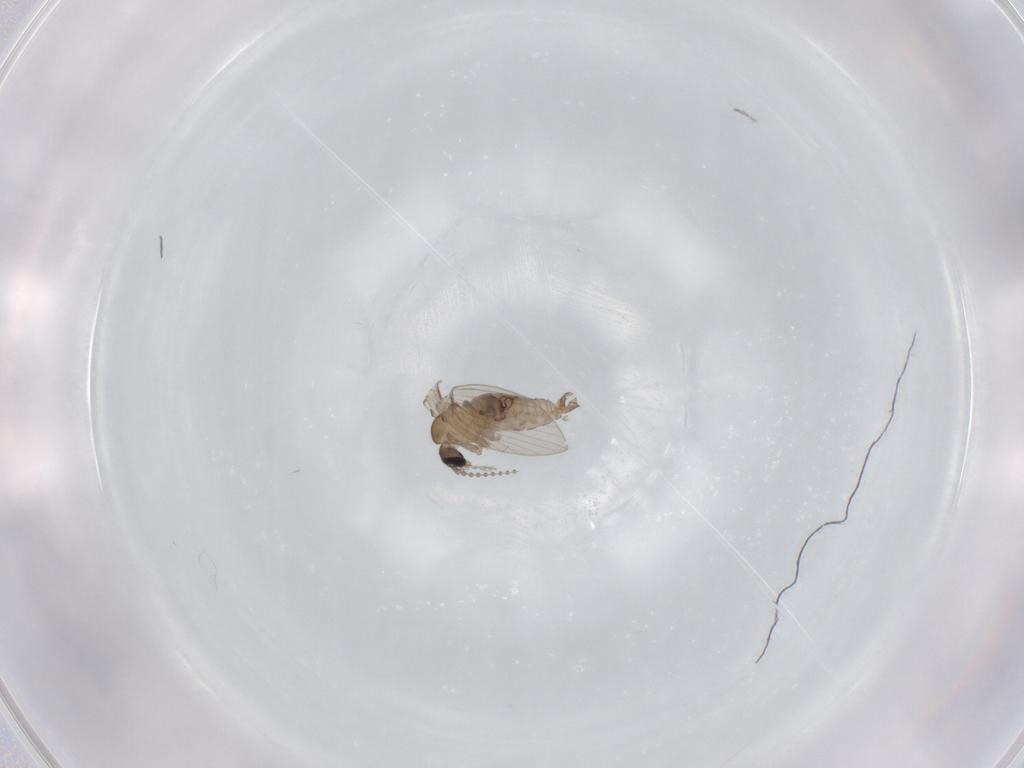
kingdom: Animalia
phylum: Arthropoda
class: Insecta
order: Diptera
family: Psychodidae
